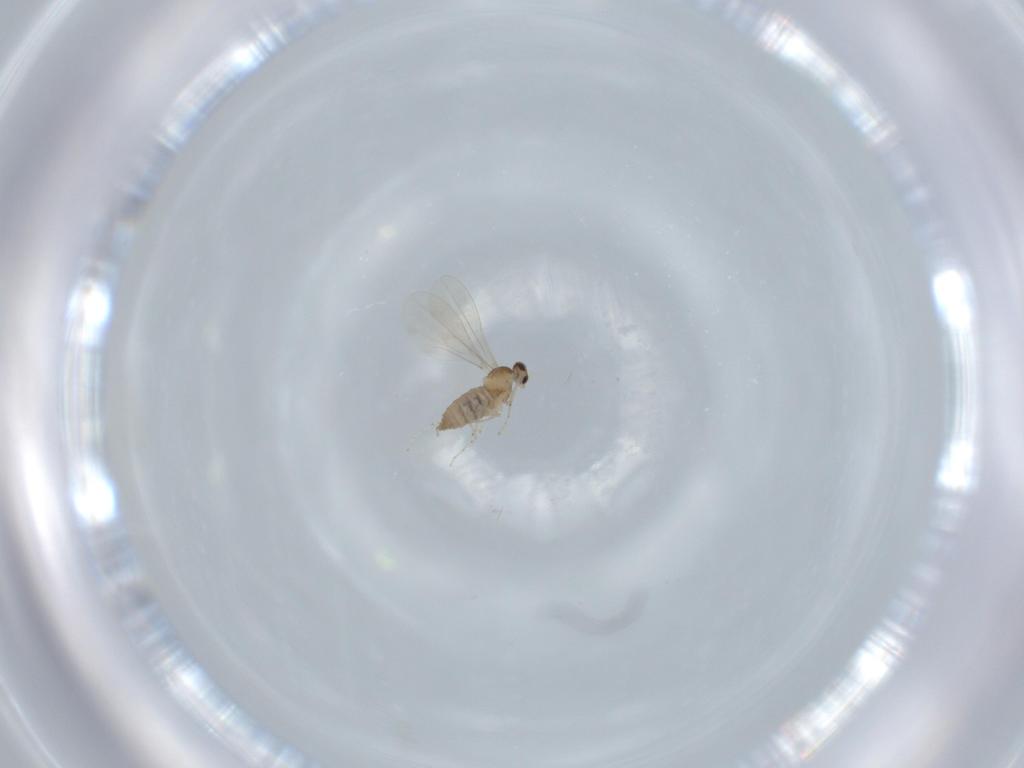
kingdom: Animalia
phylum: Arthropoda
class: Insecta
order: Diptera
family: Cecidomyiidae
